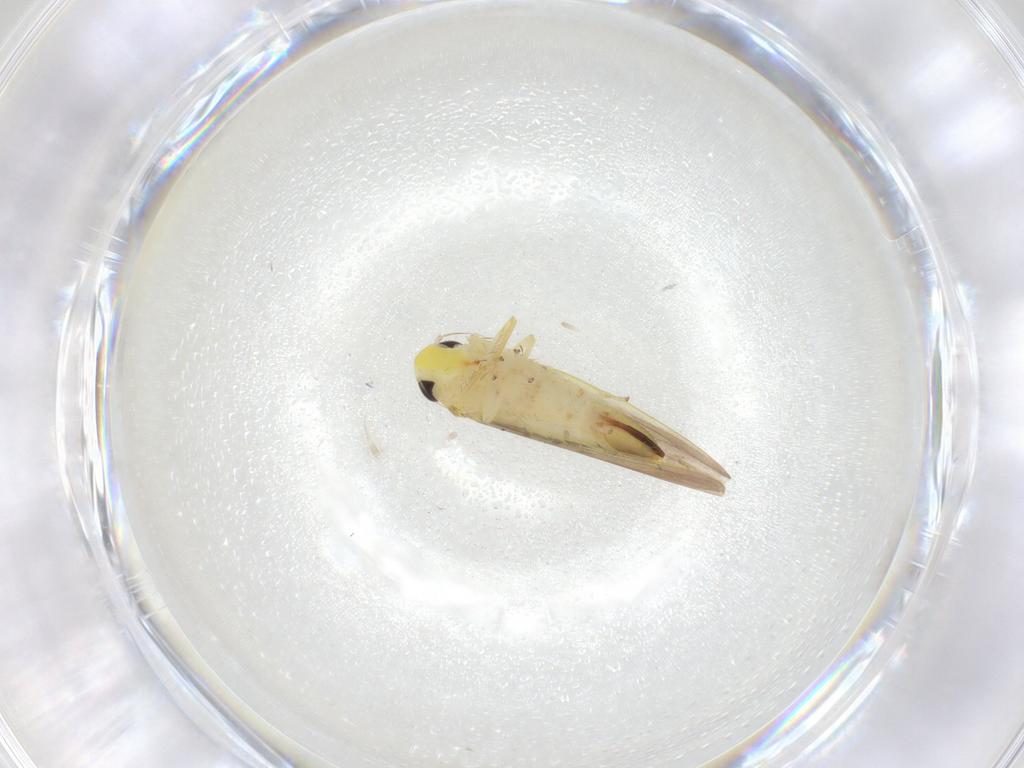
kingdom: Animalia
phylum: Arthropoda
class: Insecta
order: Hemiptera
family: Cicadellidae
